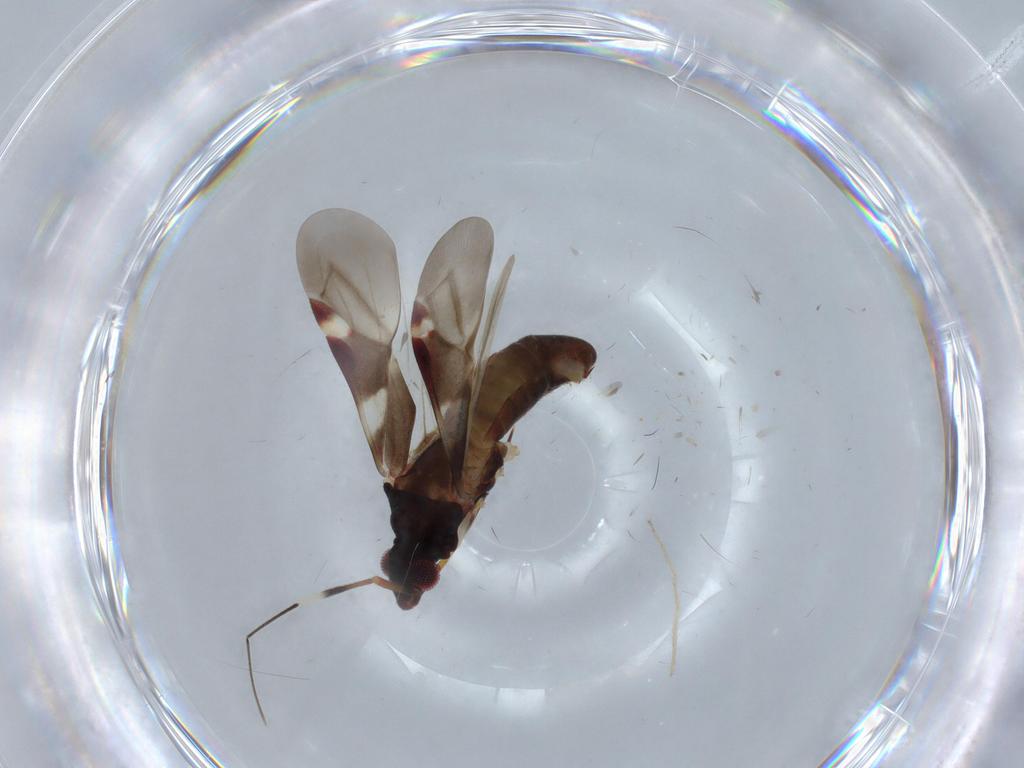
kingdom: Animalia
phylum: Arthropoda
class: Insecta
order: Hemiptera
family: Miridae
